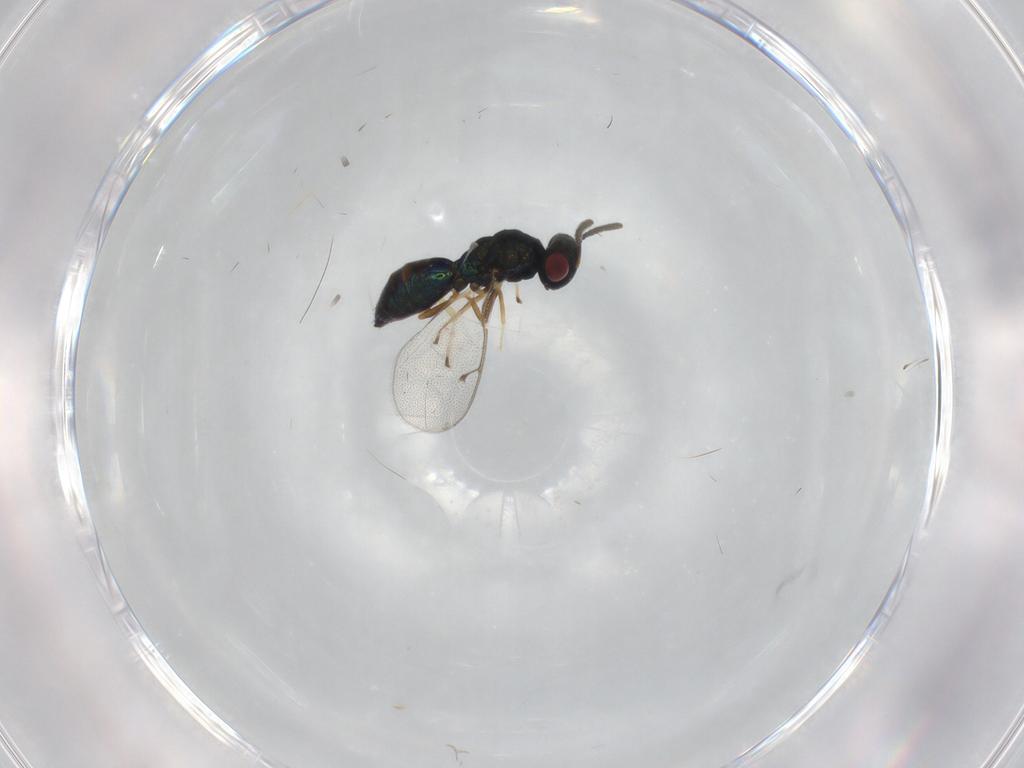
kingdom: Animalia
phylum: Arthropoda
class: Insecta
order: Hymenoptera
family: Pteromalidae
